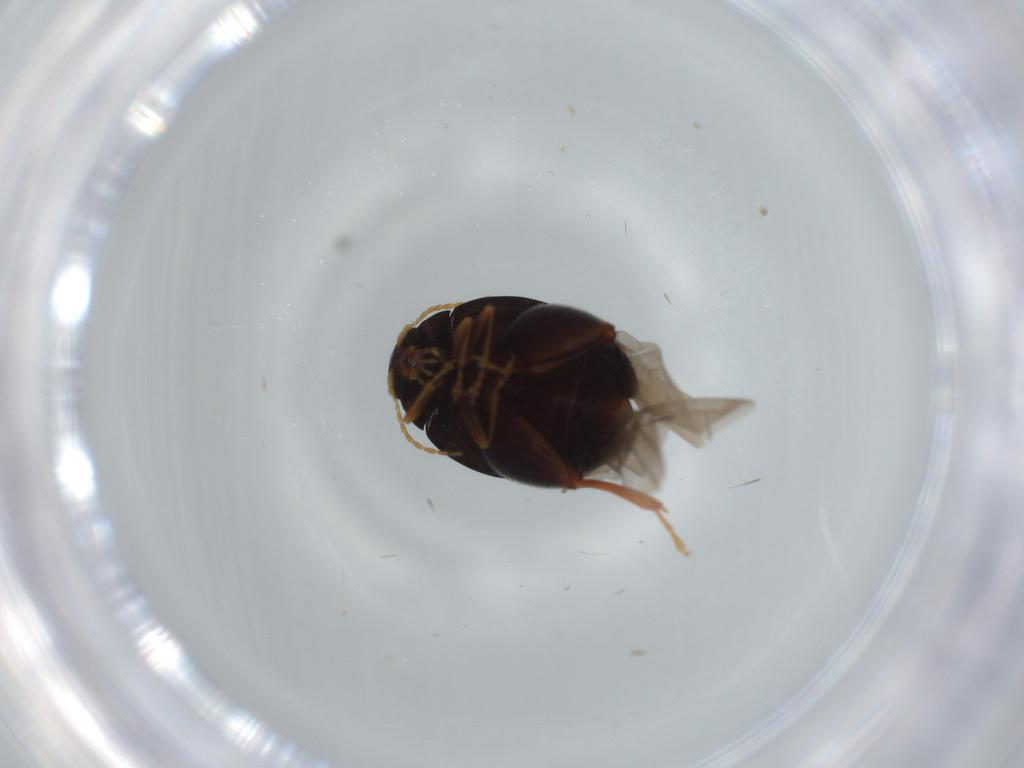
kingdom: Animalia
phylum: Arthropoda
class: Insecta
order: Coleoptera
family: Chrysomelidae
